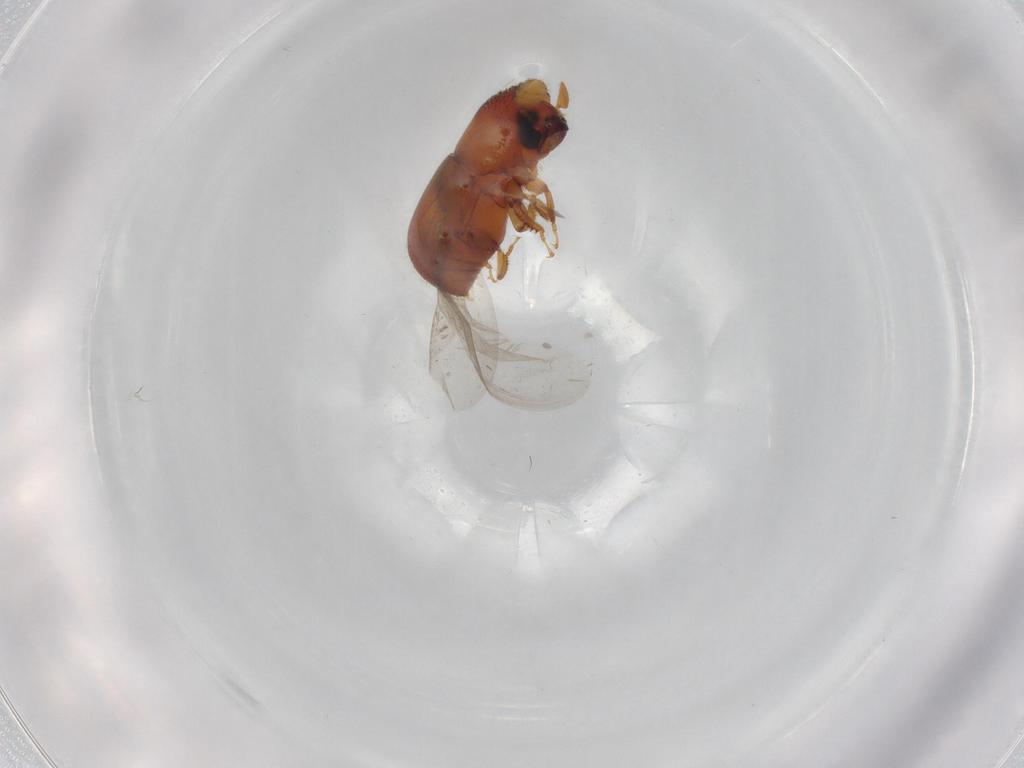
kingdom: Animalia
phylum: Arthropoda
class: Insecta
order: Coleoptera
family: Curculionidae
